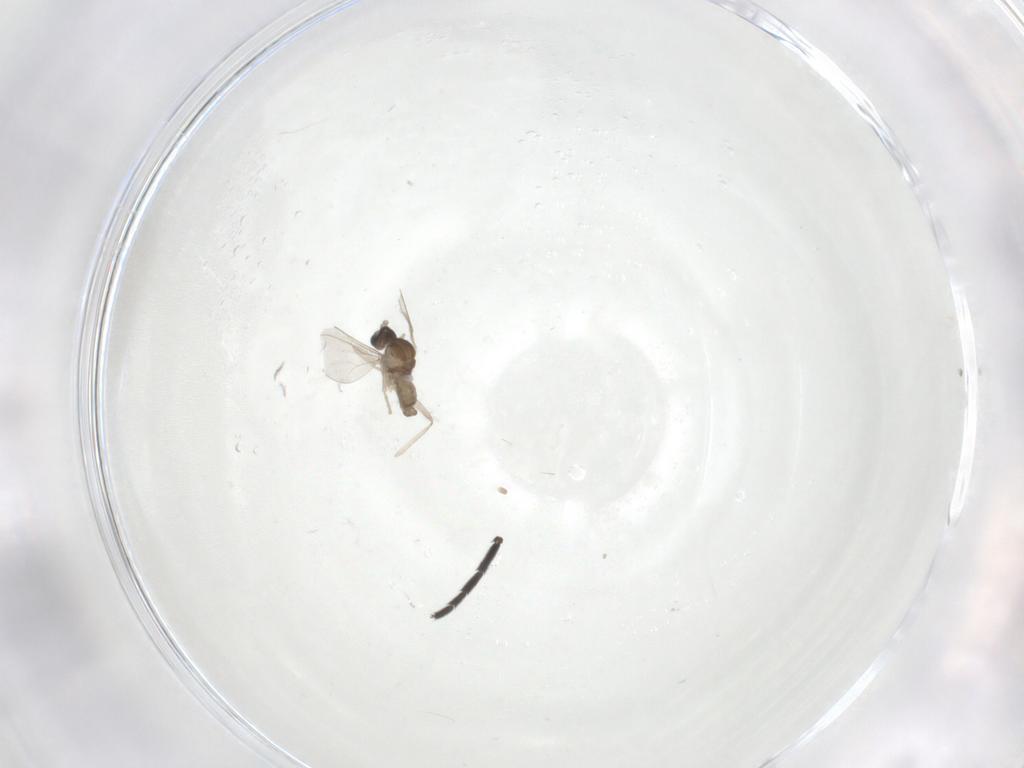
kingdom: Animalia
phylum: Arthropoda
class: Insecta
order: Diptera
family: Cecidomyiidae
